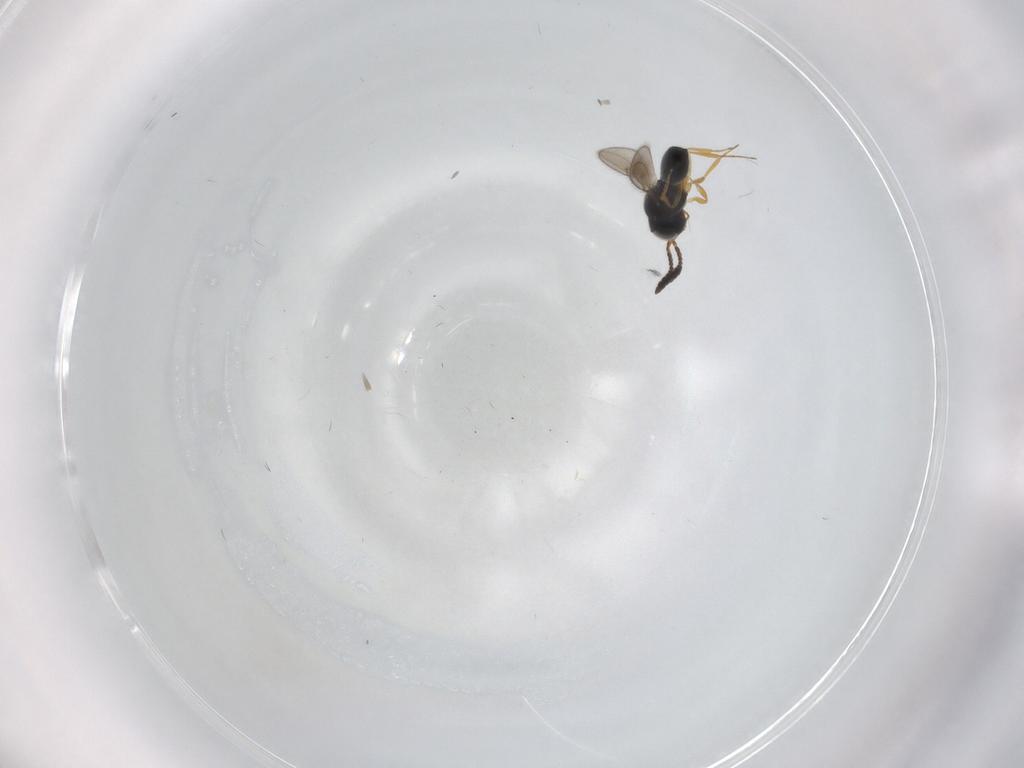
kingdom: Animalia
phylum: Arthropoda
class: Insecta
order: Hymenoptera
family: Scelionidae
